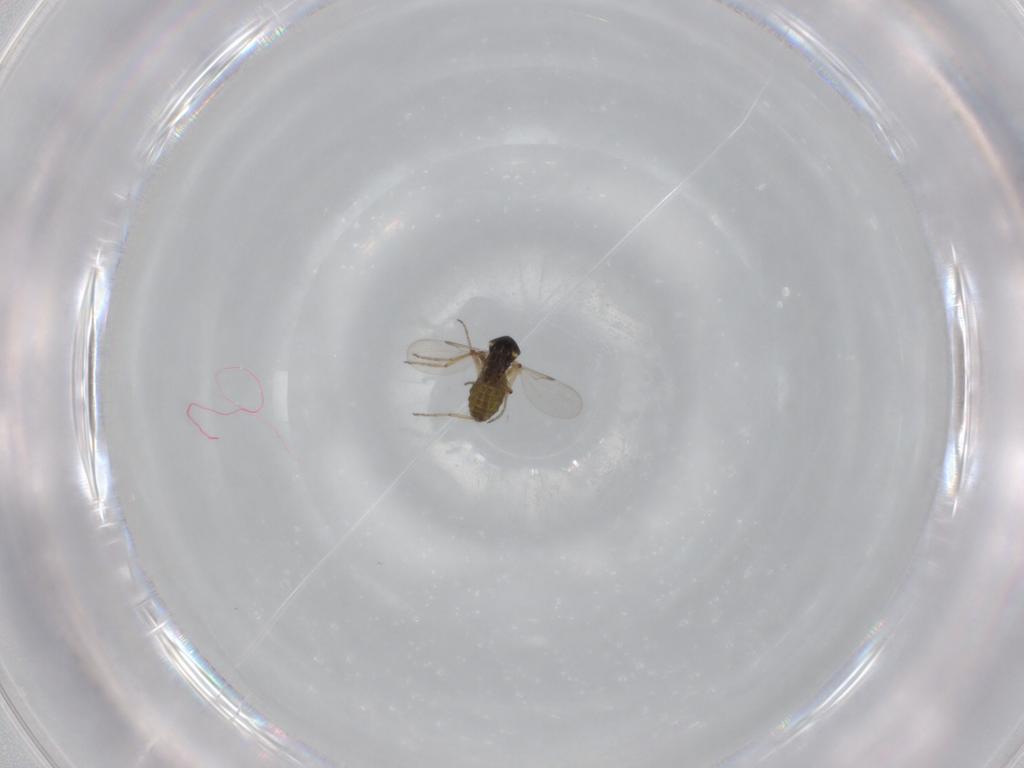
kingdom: Animalia
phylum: Arthropoda
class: Insecta
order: Diptera
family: Ceratopogonidae
